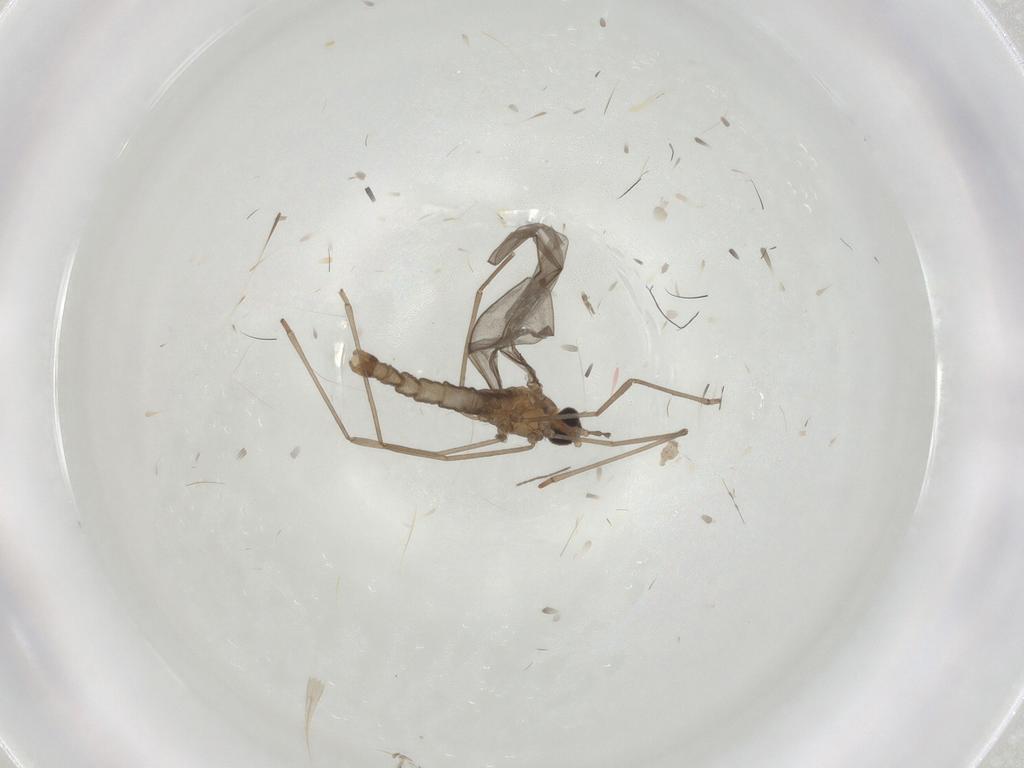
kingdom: Animalia
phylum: Arthropoda
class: Insecta
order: Diptera
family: Cecidomyiidae
